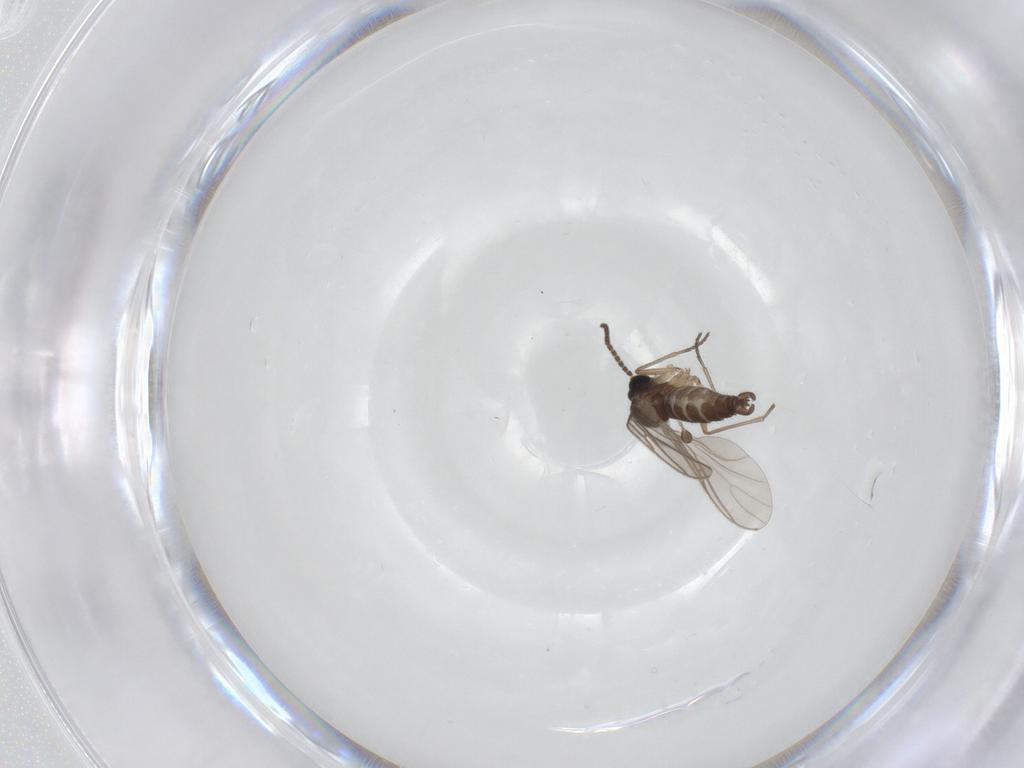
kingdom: Animalia
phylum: Arthropoda
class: Insecta
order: Diptera
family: Sciaridae
